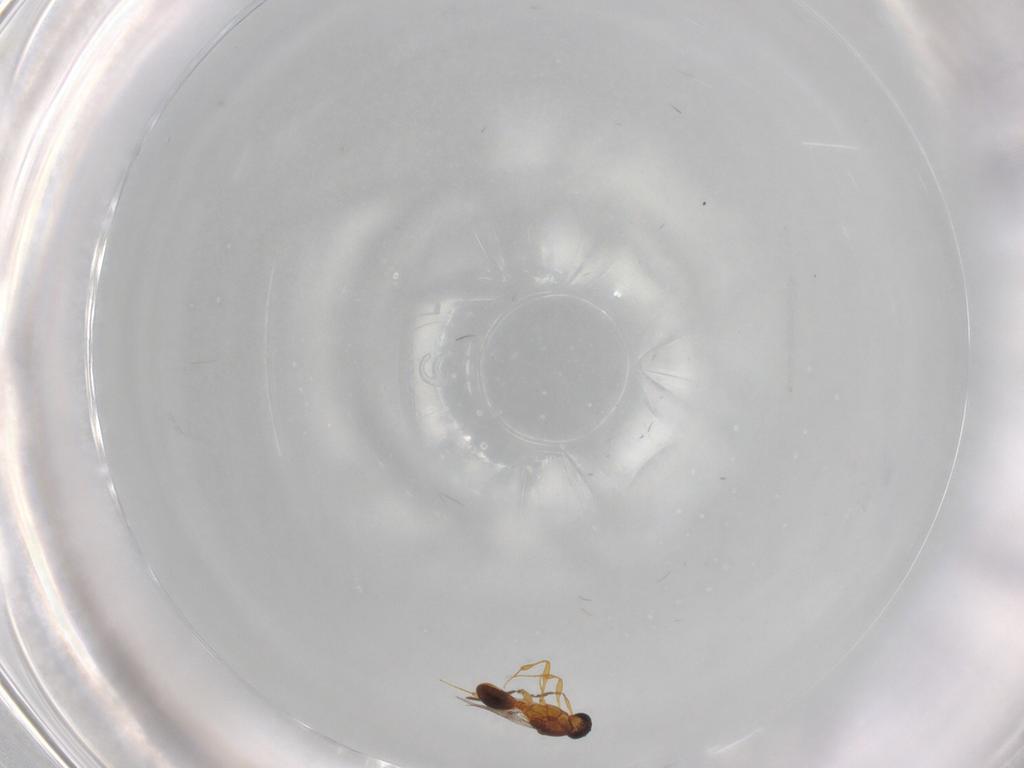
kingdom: Animalia
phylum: Arthropoda
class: Insecta
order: Hymenoptera
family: Platygastridae
